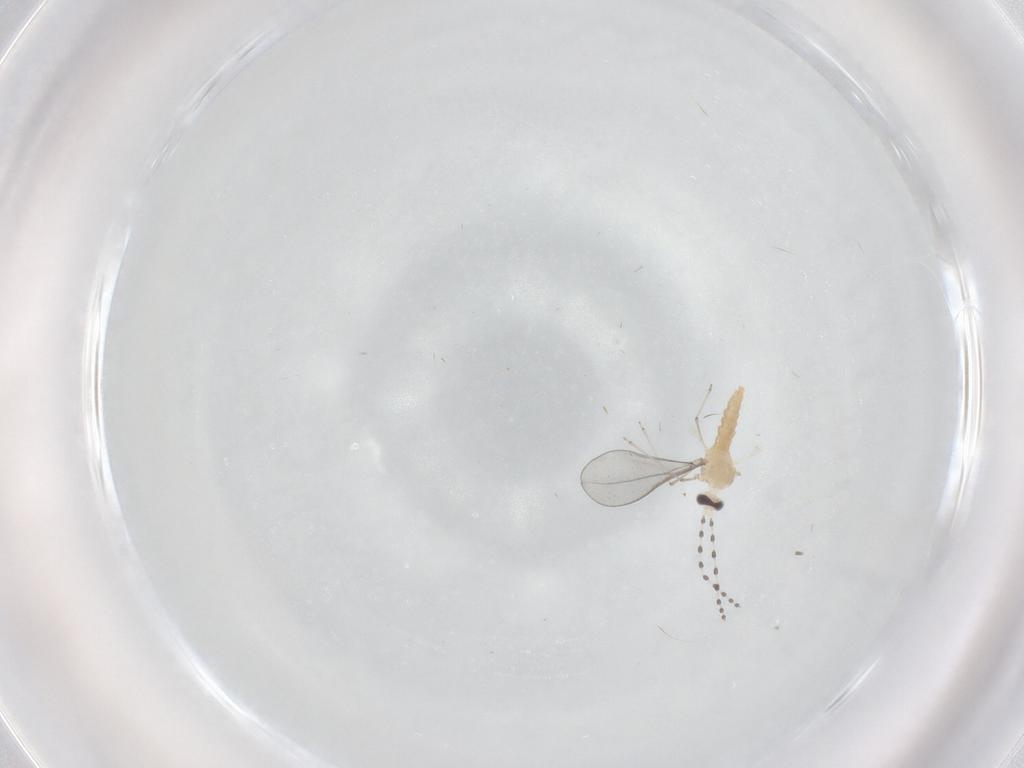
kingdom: Animalia
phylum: Arthropoda
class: Insecta
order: Diptera
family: Cecidomyiidae
